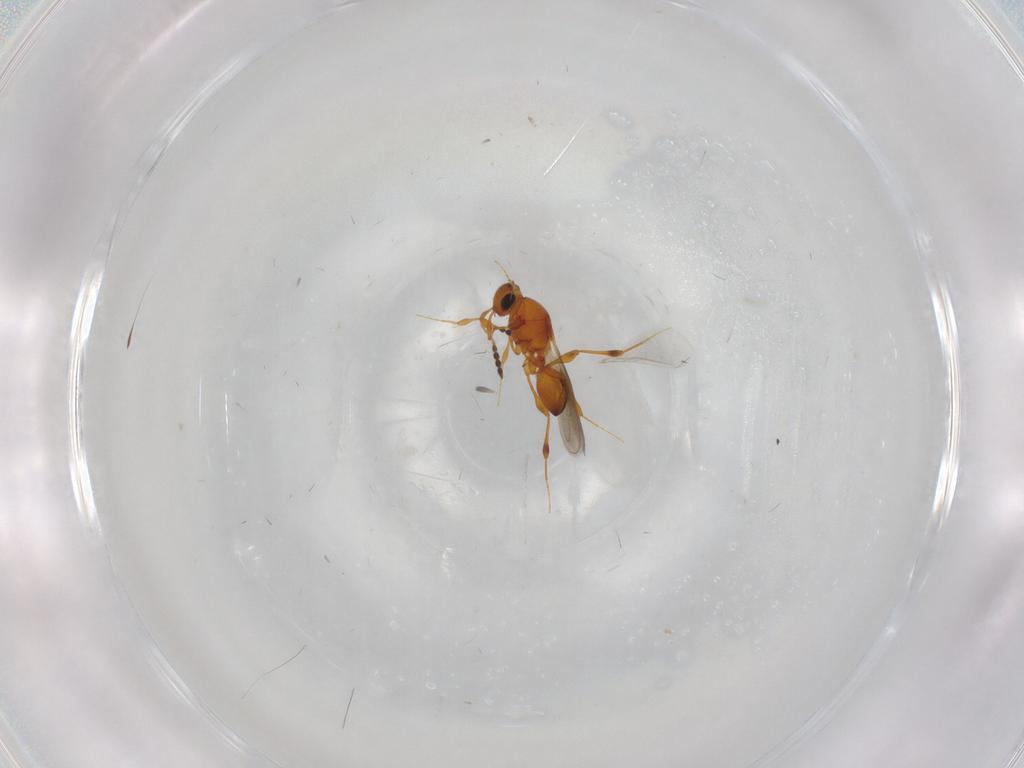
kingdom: Animalia
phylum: Arthropoda
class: Insecta
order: Hymenoptera
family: Platygastridae
